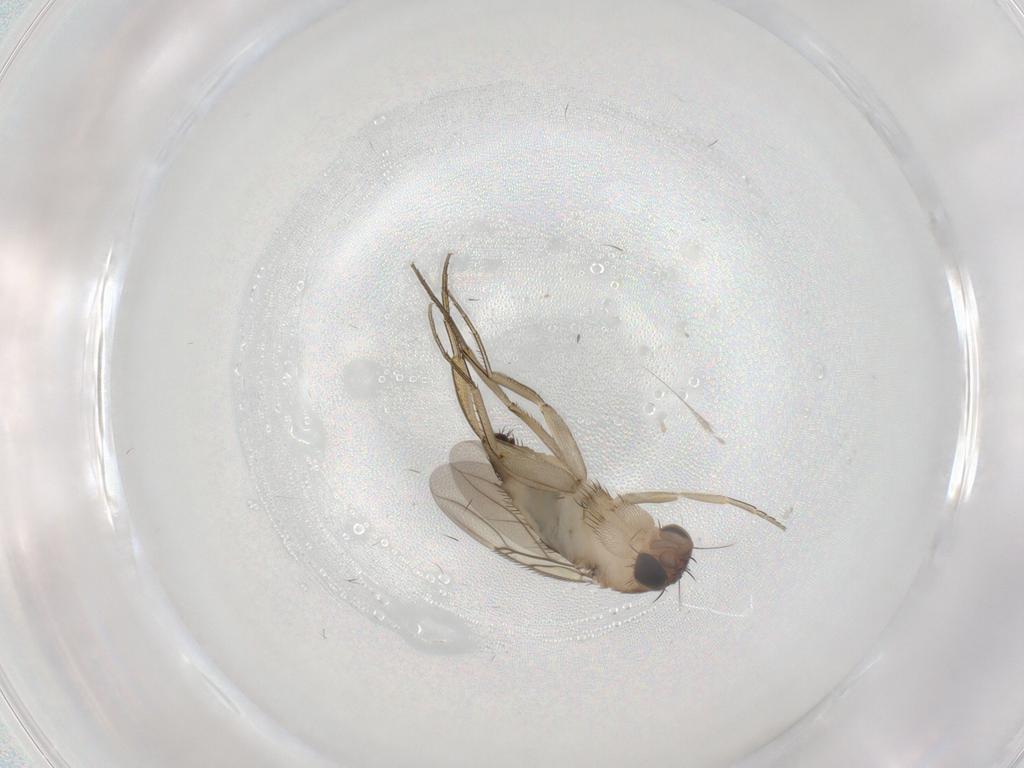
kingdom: Animalia
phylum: Arthropoda
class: Insecta
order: Diptera
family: Phoridae
